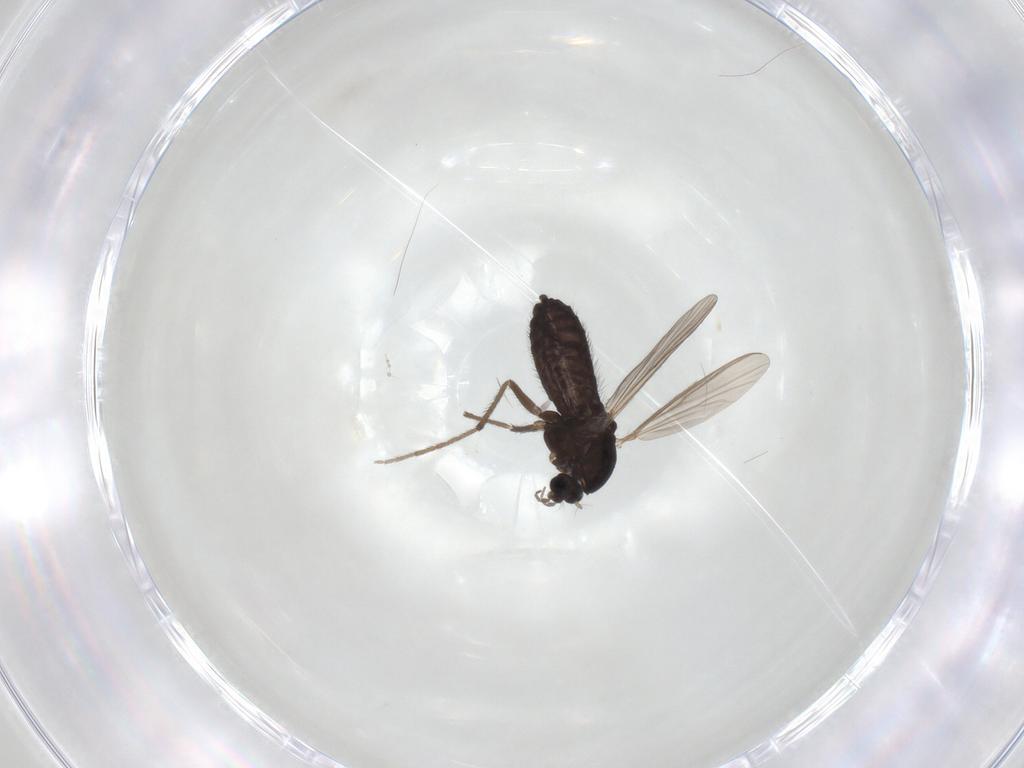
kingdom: Animalia
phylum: Arthropoda
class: Insecta
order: Diptera
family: Chironomidae
